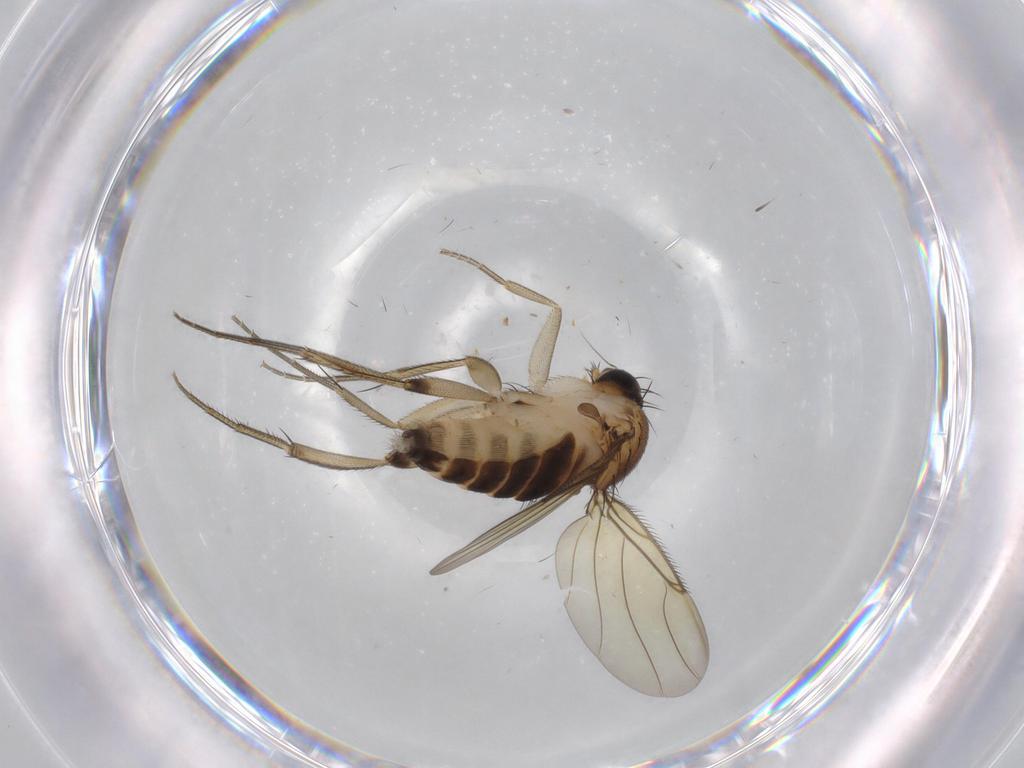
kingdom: Animalia
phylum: Arthropoda
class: Insecta
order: Diptera
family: Phoridae
